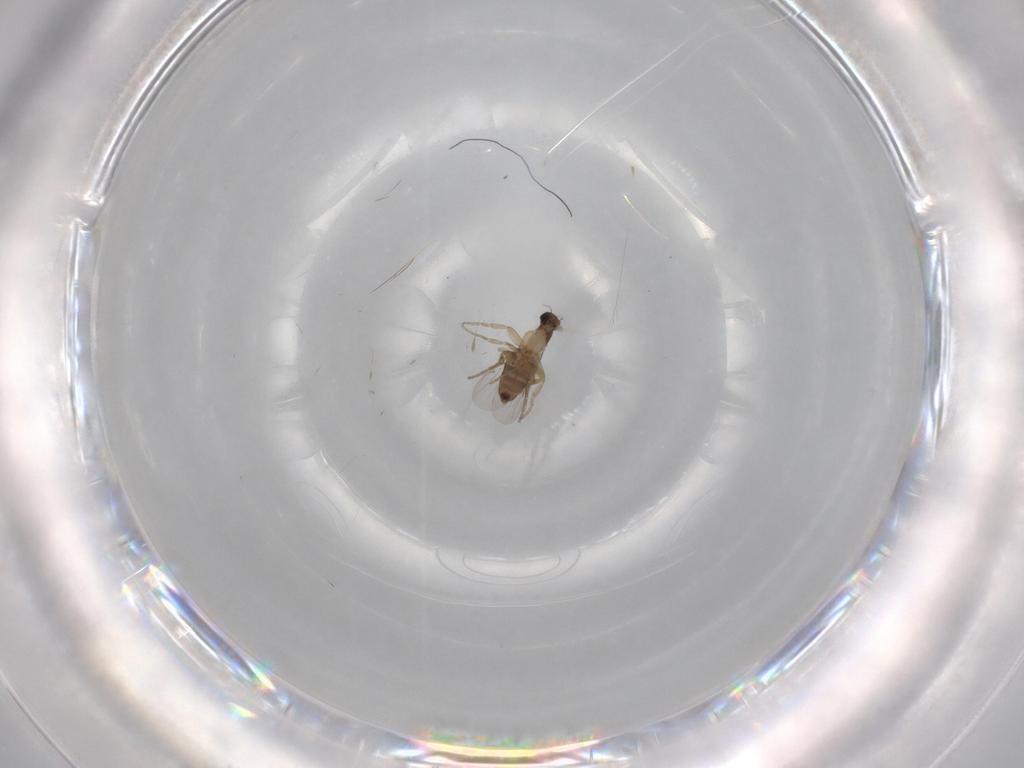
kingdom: Animalia
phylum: Arthropoda
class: Insecta
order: Diptera
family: Phoridae
